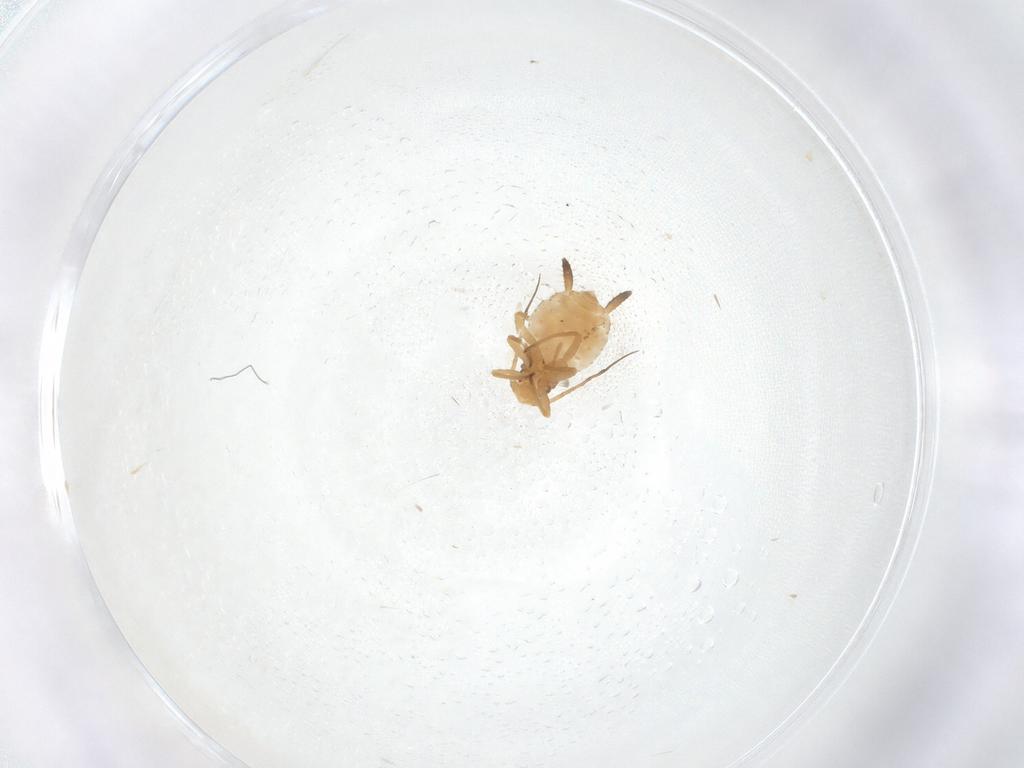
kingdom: Animalia
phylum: Arthropoda
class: Insecta
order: Hemiptera
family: Aphididae
